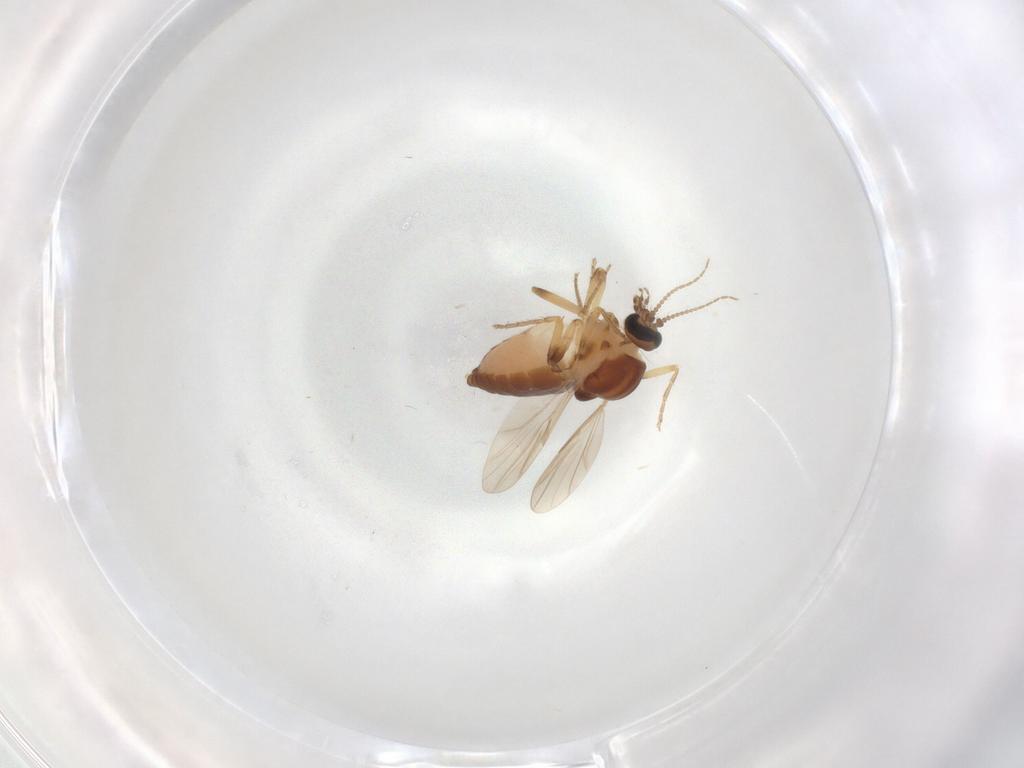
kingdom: Animalia
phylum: Arthropoda
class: Insecta
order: Diptera
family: Ceratopogonidae
